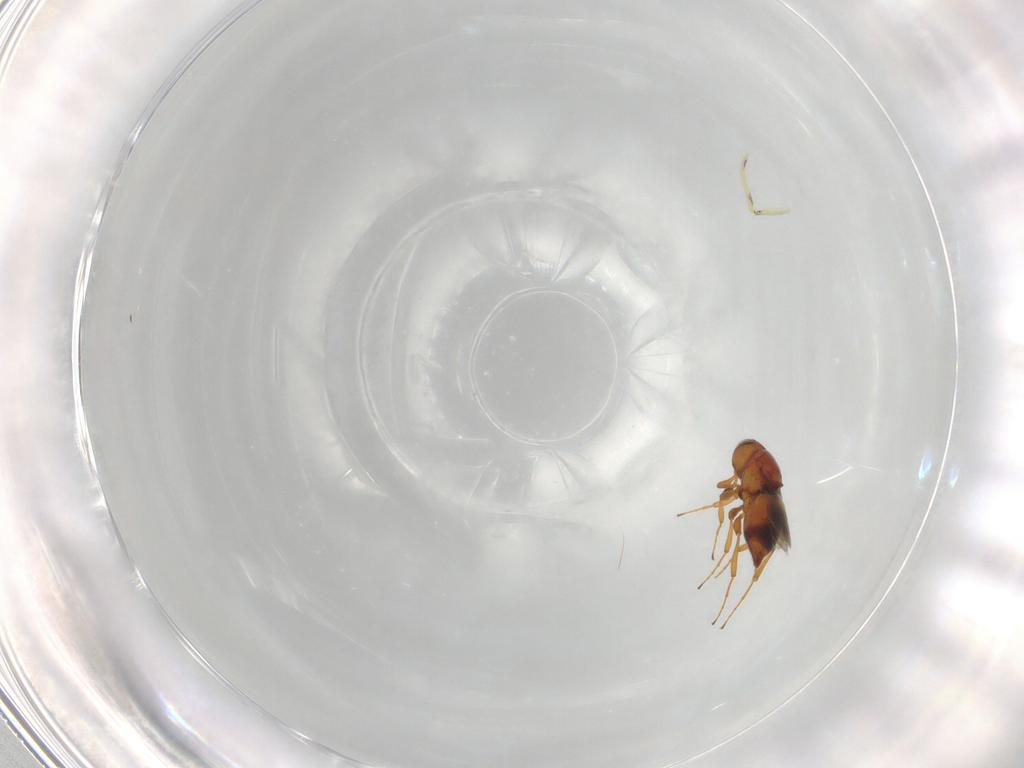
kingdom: Animalia
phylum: Arthropoda
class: Insecta
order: Hymenoptera
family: Platygastridae
